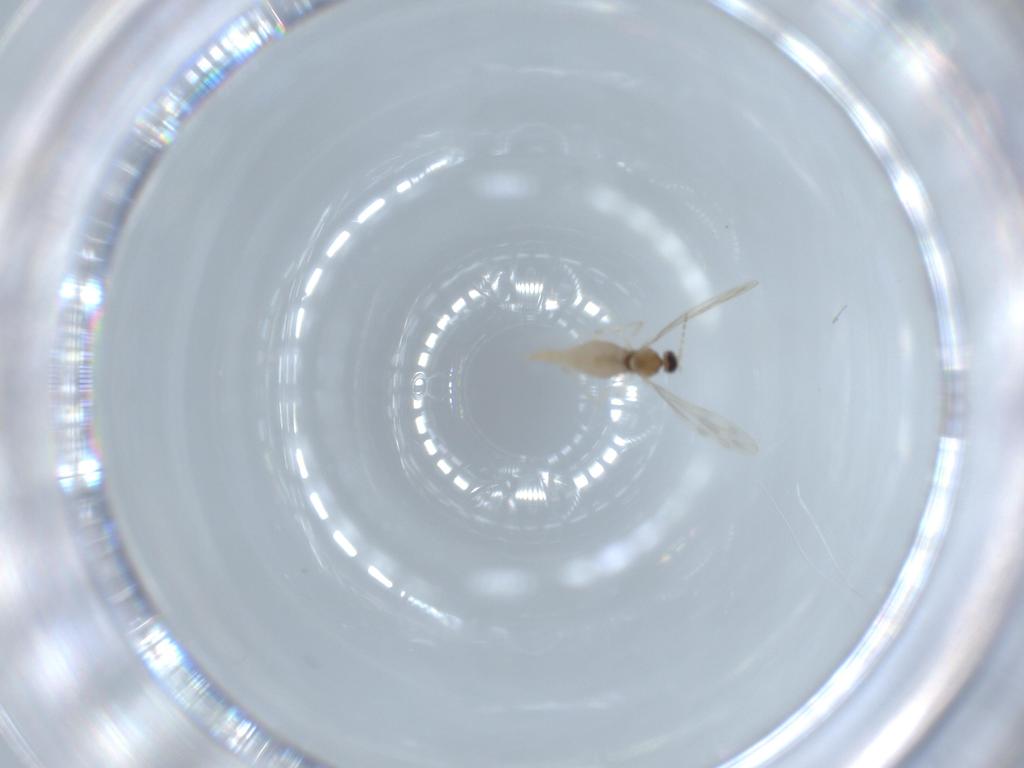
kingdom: Animalia
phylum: Arthropoda
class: Insecta
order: Diptera
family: Cecidomyiidae
